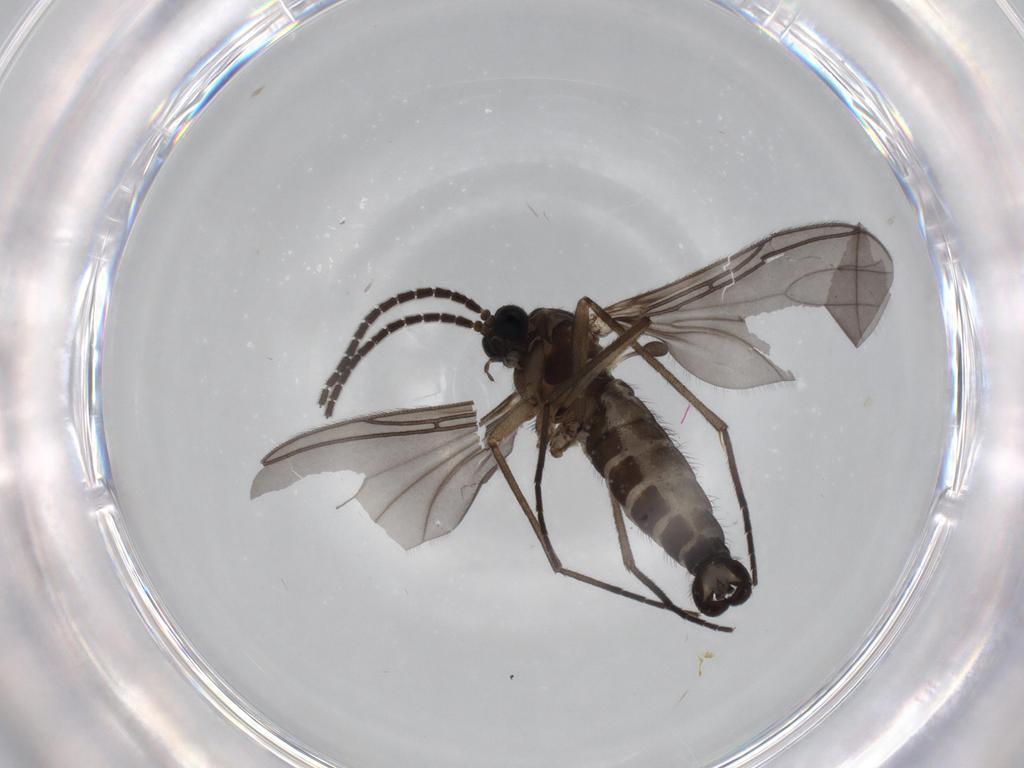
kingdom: Animalia
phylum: Arthropoda
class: Insecta
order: Diptera
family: Sciaridae
